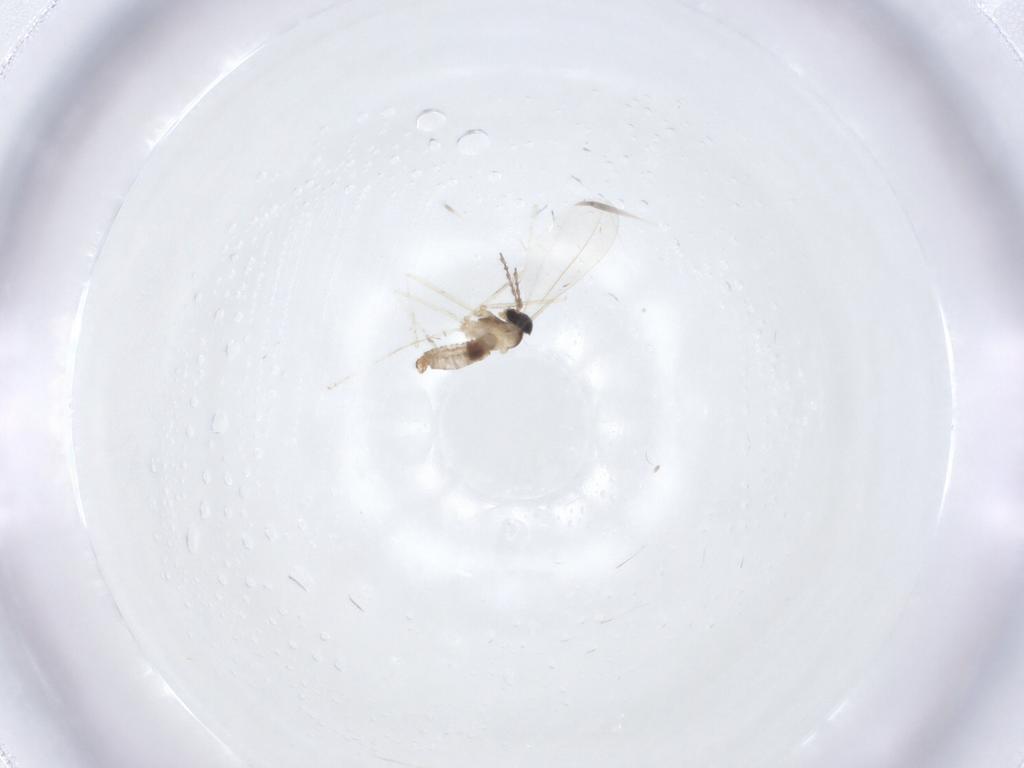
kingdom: Animalia
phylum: Arthropoda
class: Insecta
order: Diptera
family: Cecidomyiidae
